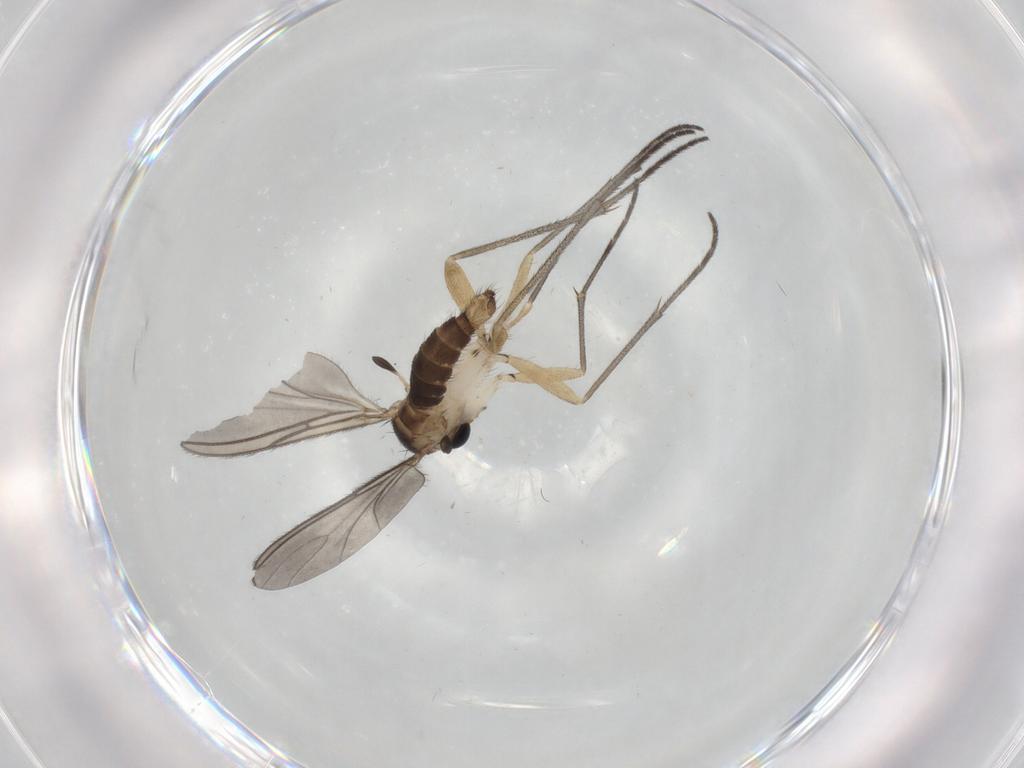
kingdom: Animalia
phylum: Arthropoda
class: Insecta
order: Diptera
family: Sciaridae
